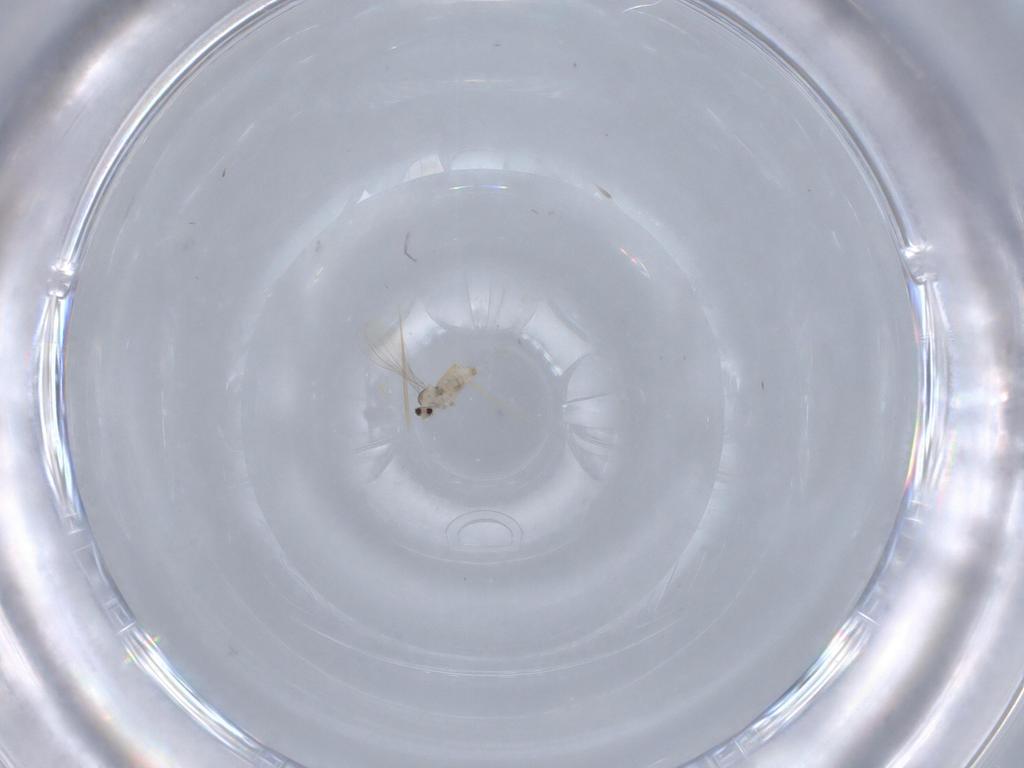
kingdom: Animalia
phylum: Arthropoda
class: Insecta
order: Diptera
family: Cecidomyiidae
